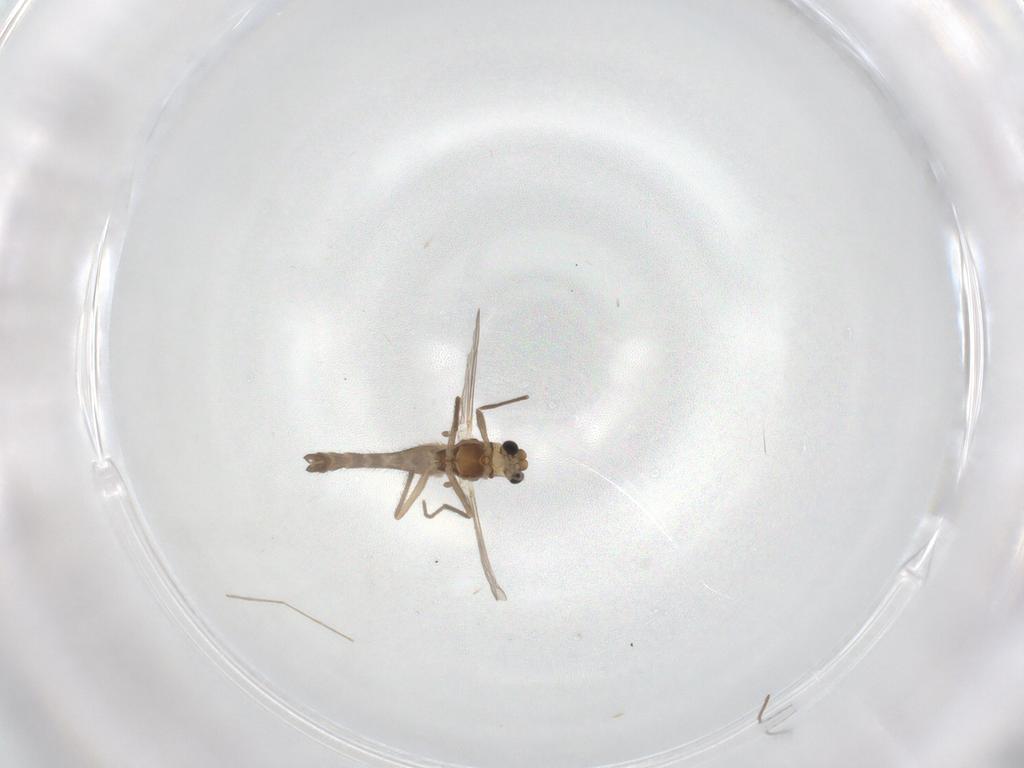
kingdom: Animalia
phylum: Arthropoda
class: Insecta
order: Diptera
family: Chironomidae
